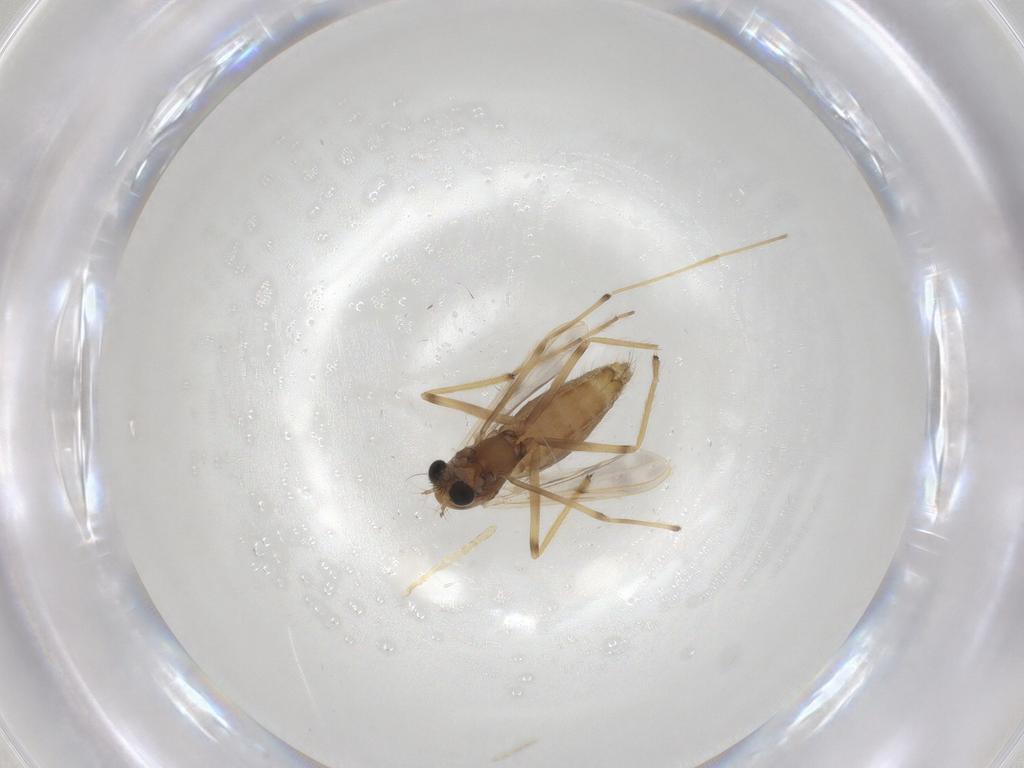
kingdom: Animalia
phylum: Arthropoda
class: Insecta
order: Diptera
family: Chironomidae
